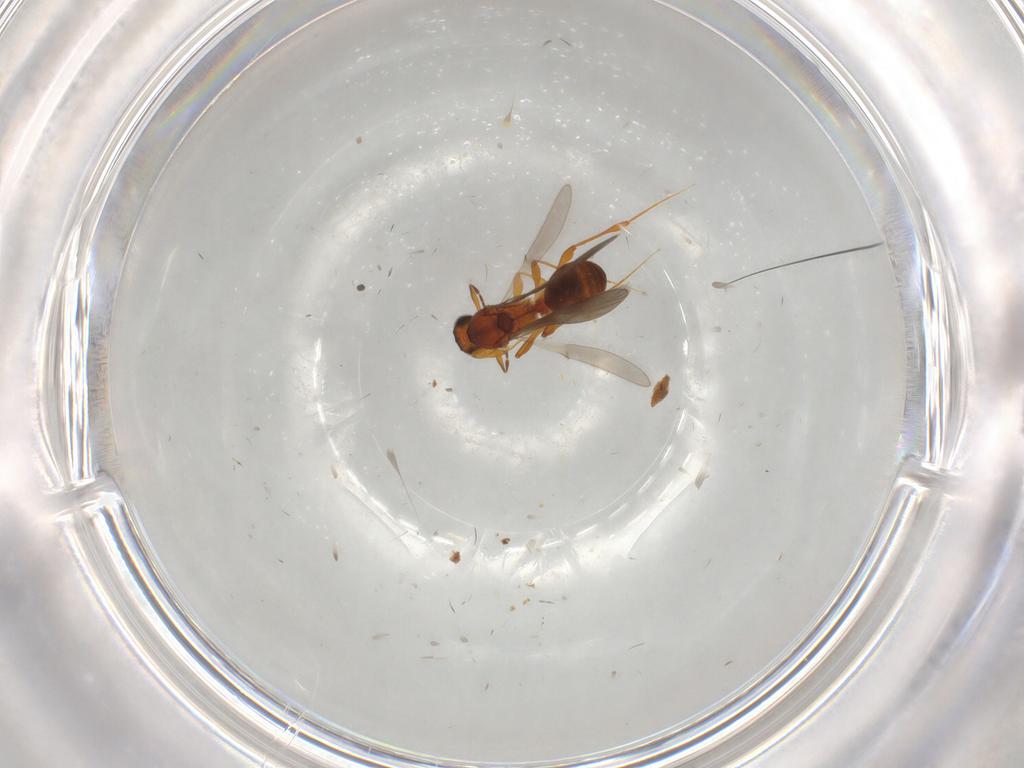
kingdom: Animalia
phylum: Arthropoda
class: Insecta
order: Hymenoptera
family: Platygastridae
